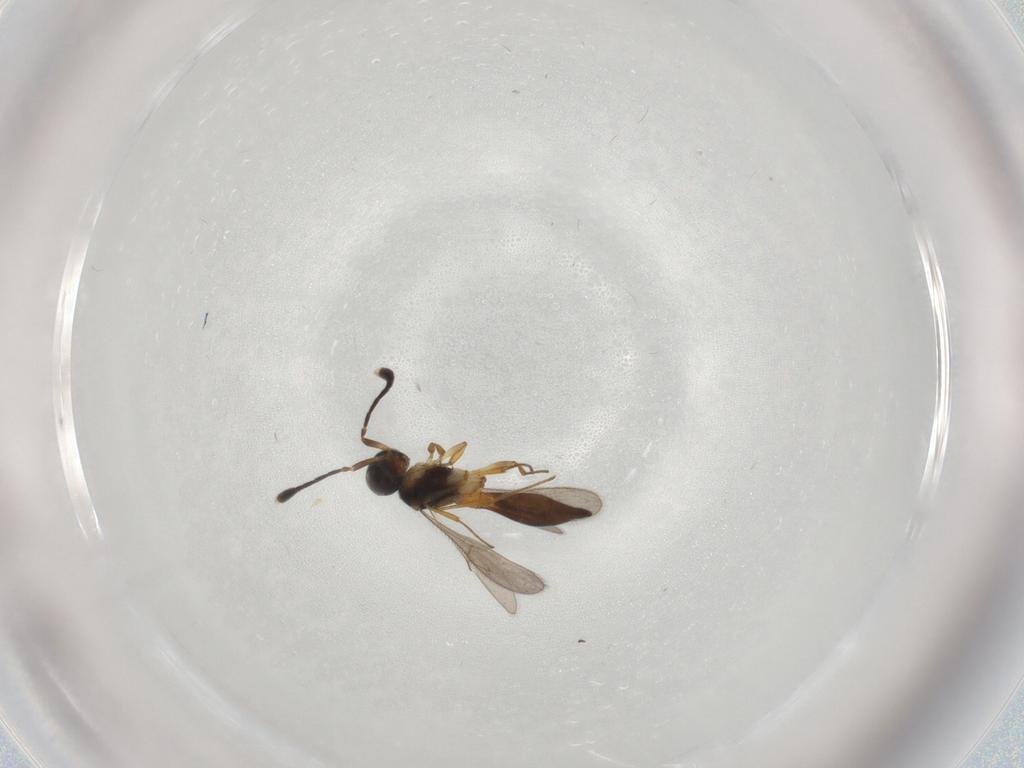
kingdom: Animalia
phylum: Arthropoda
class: Insecta
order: Hymenoptera
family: Scelionidae
